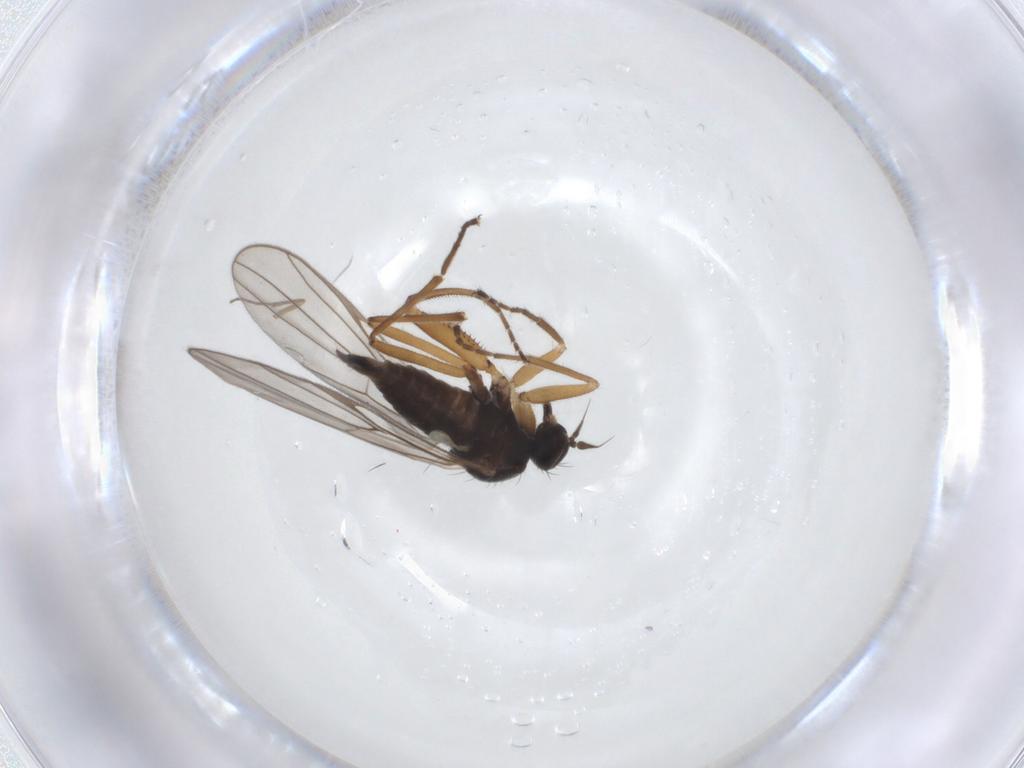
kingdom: Animalia
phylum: Arthropoda
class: Insecta
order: Diptera
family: Hybotidae
